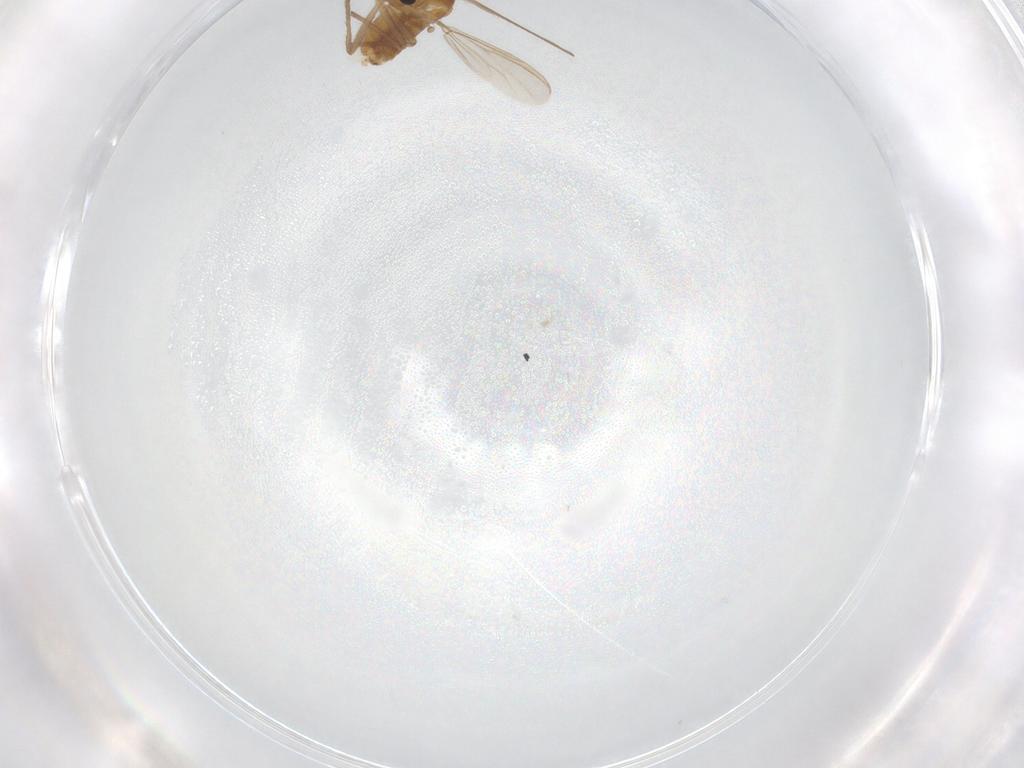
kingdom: Animalia
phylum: Arthropoda
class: Insecta
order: Diptera
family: Chironomidae
